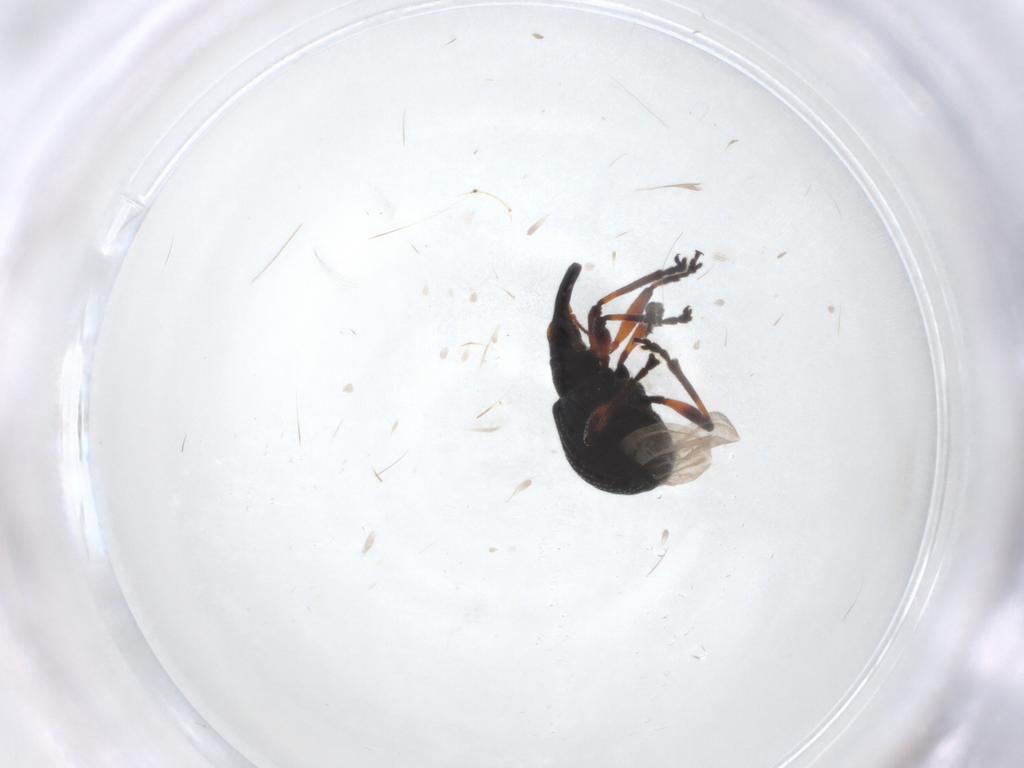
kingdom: Animalia
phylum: Arthropoda
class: Insecta
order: Coleoptera
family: Brentidae
